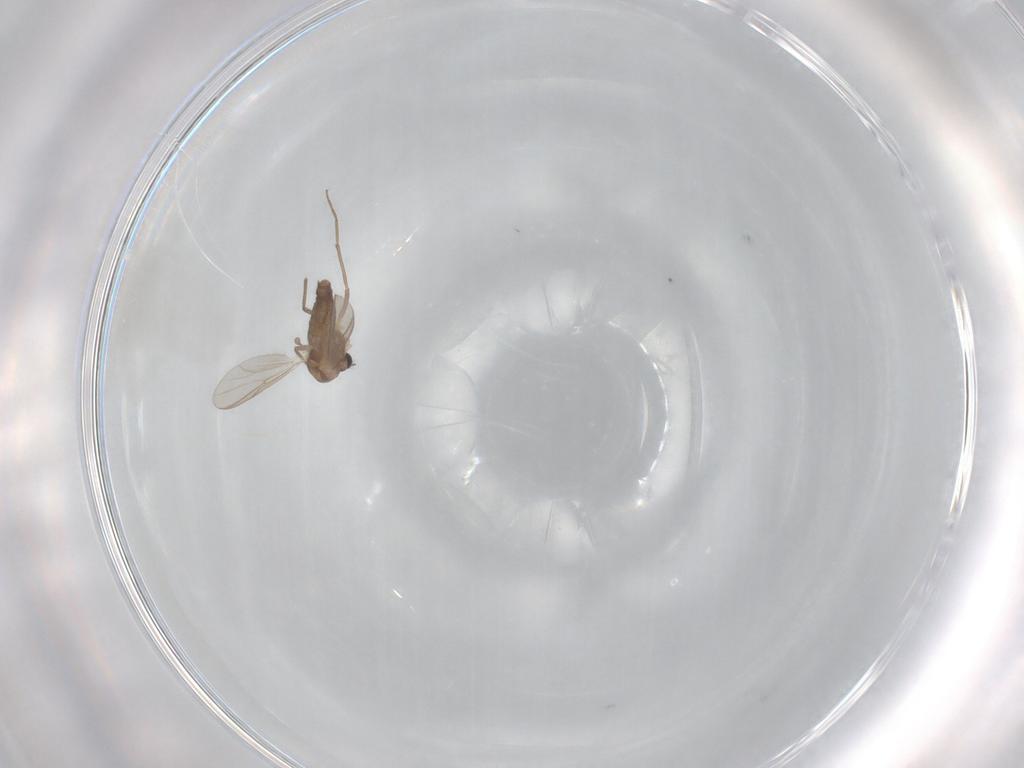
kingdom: Animalia
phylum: Arthropoda
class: Insecta
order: Diptera
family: Chironomidae
